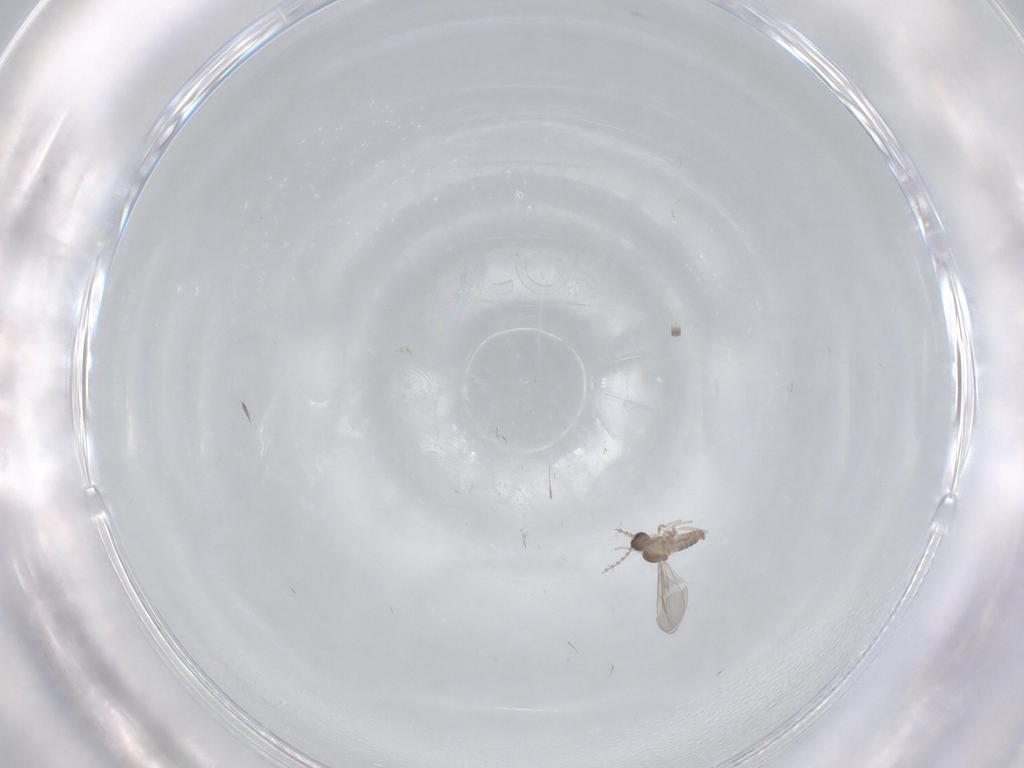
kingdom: Animalia
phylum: Arthropoda
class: Insecta
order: Diptera
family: Cecidomyiidae
